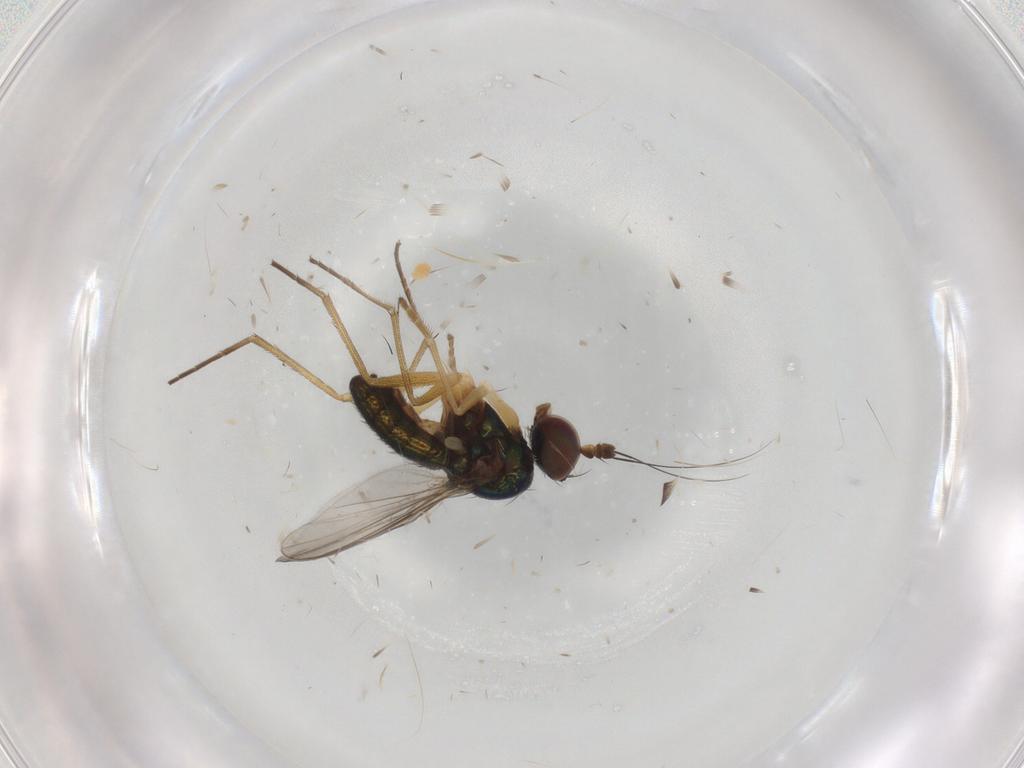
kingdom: Animalia
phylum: Arthropoda
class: Insecta
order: Diptera
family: Dolichopodidae
